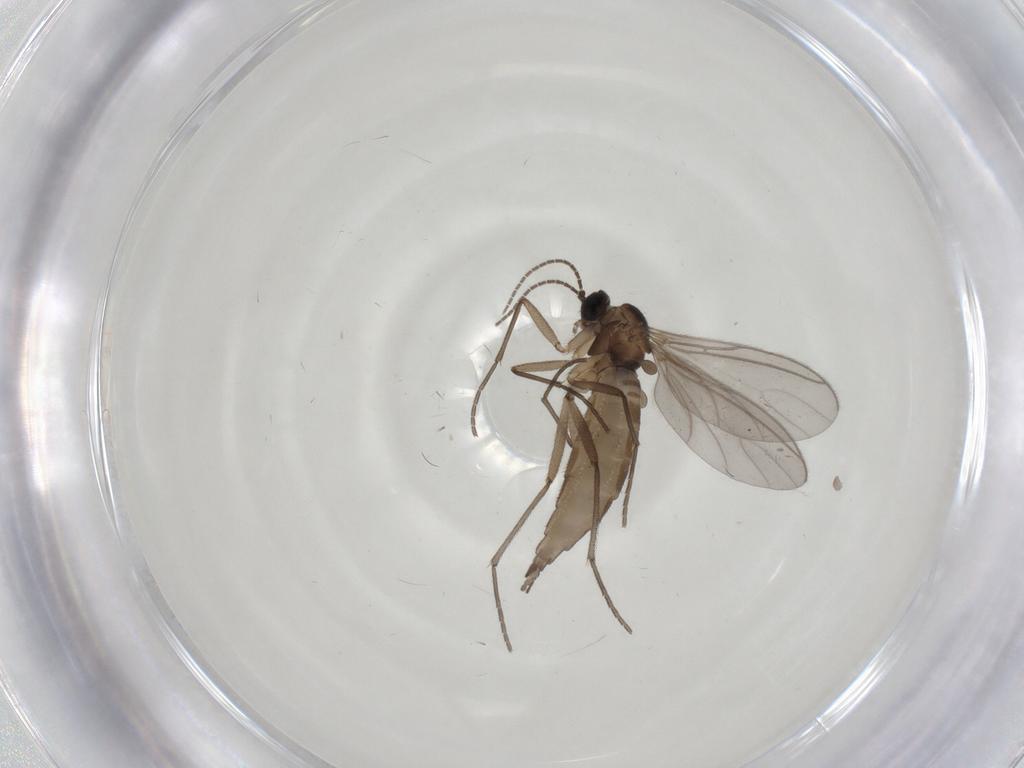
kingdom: Animalia
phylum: Arthropoda
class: Insecta
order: Diptera
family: Sciaridae
